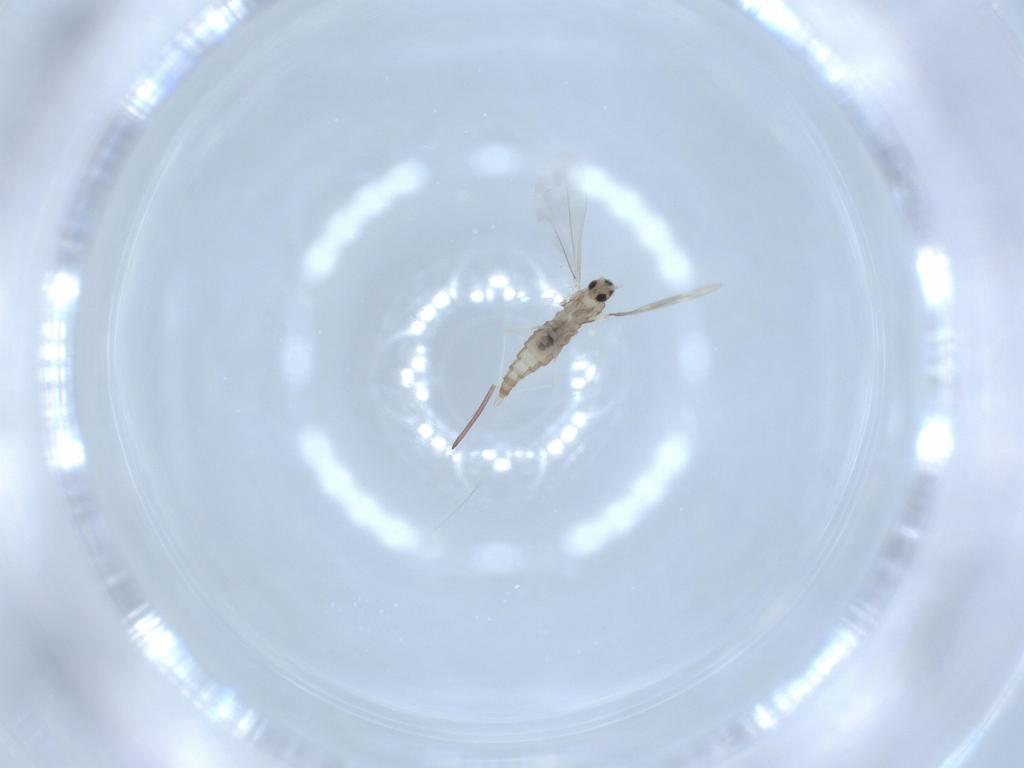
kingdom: Animalia
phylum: Arthropoda
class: Insecta
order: Diptera
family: Cecidomyiidae
